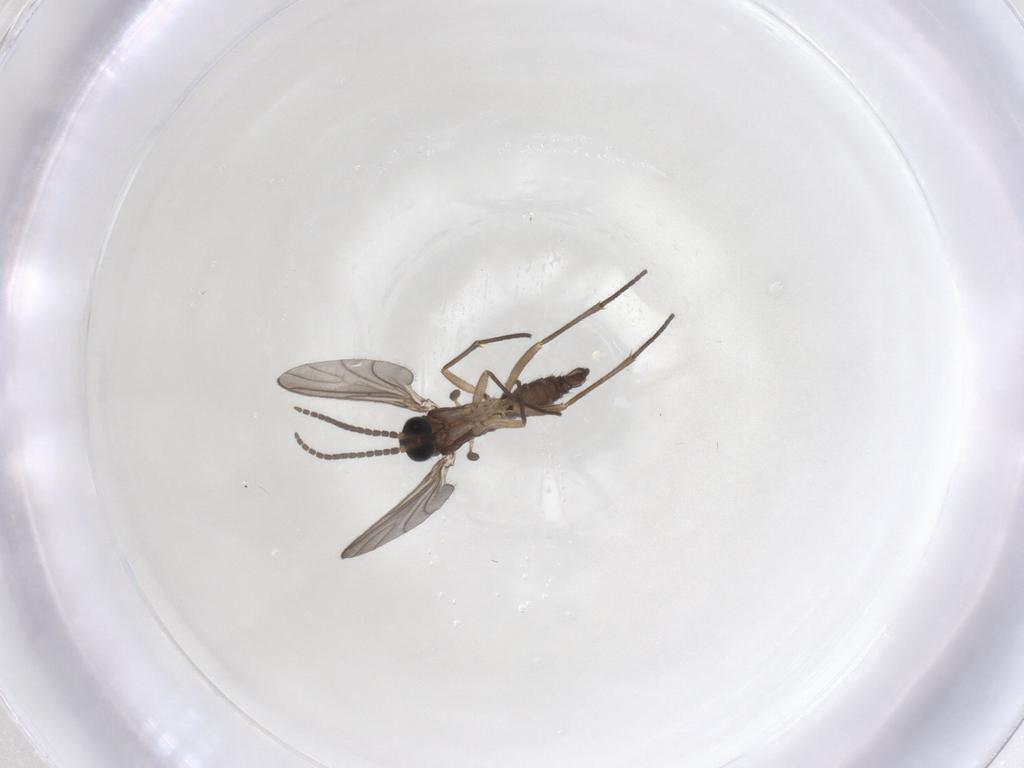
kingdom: Animalia
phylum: Arthropoda
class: Insecta
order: Diptera
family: Sciaridae
